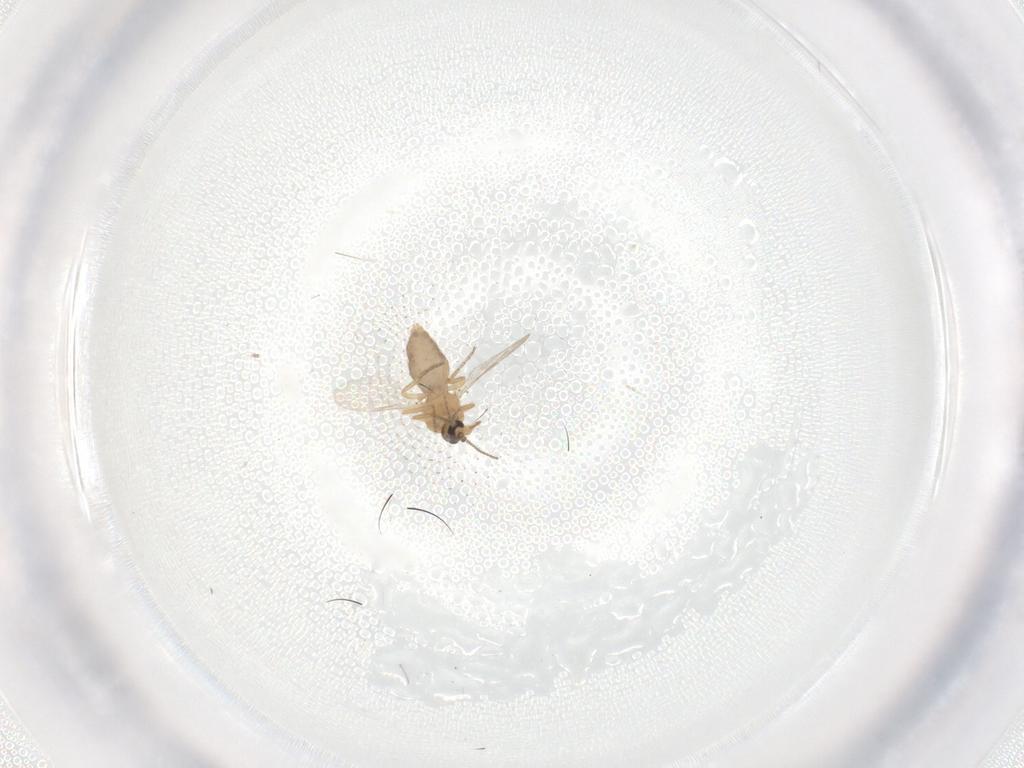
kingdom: Animalia
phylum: Arthropoda
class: Insecta
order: Diptera
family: Ceratopogonidae
